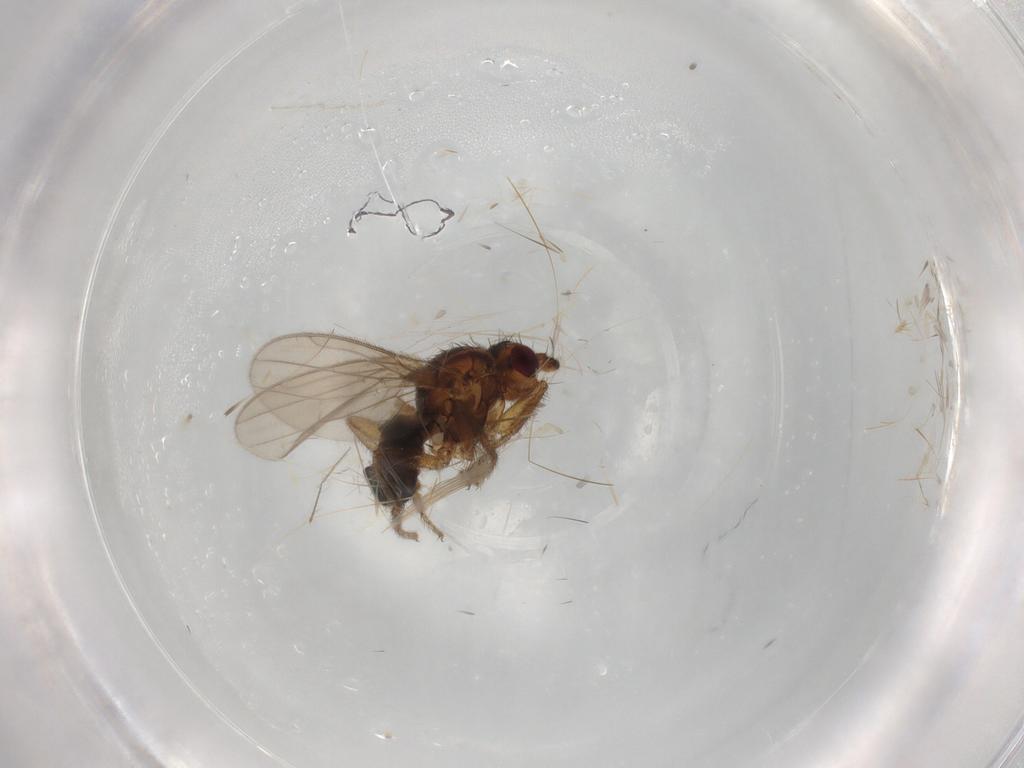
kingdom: Animalia
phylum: Arthropoda
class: Insecta
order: Diptera
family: Sphaeroceridae
